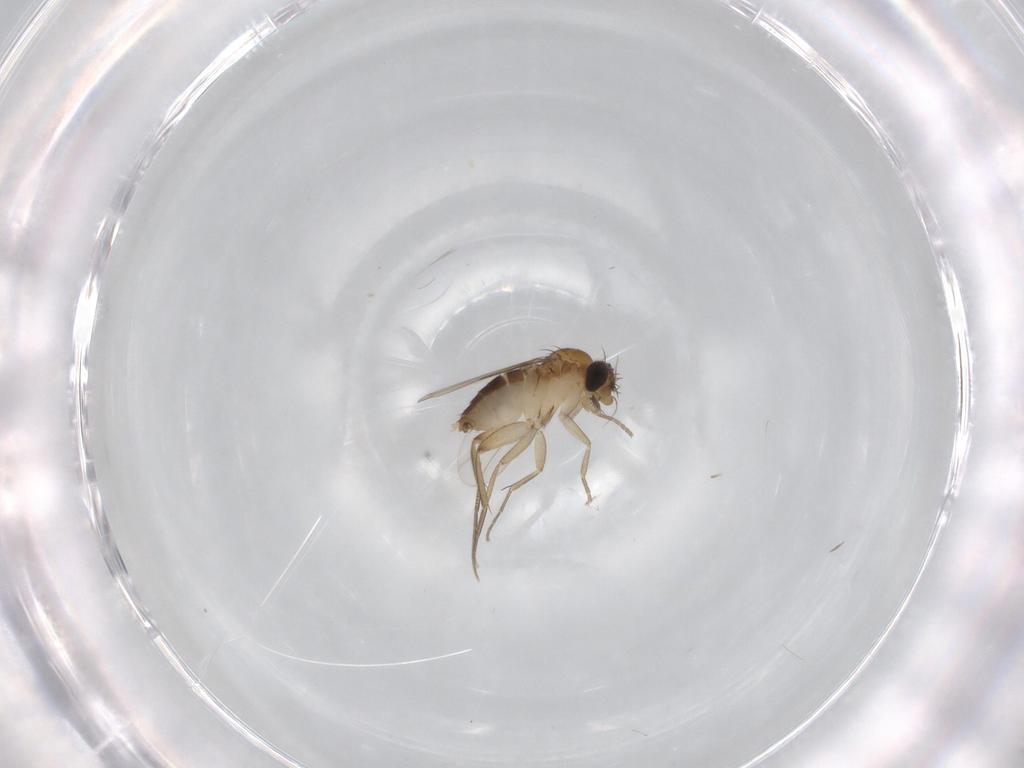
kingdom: Animalia
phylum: Arthropoda
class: Insecta
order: Diptera
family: Phoridae
